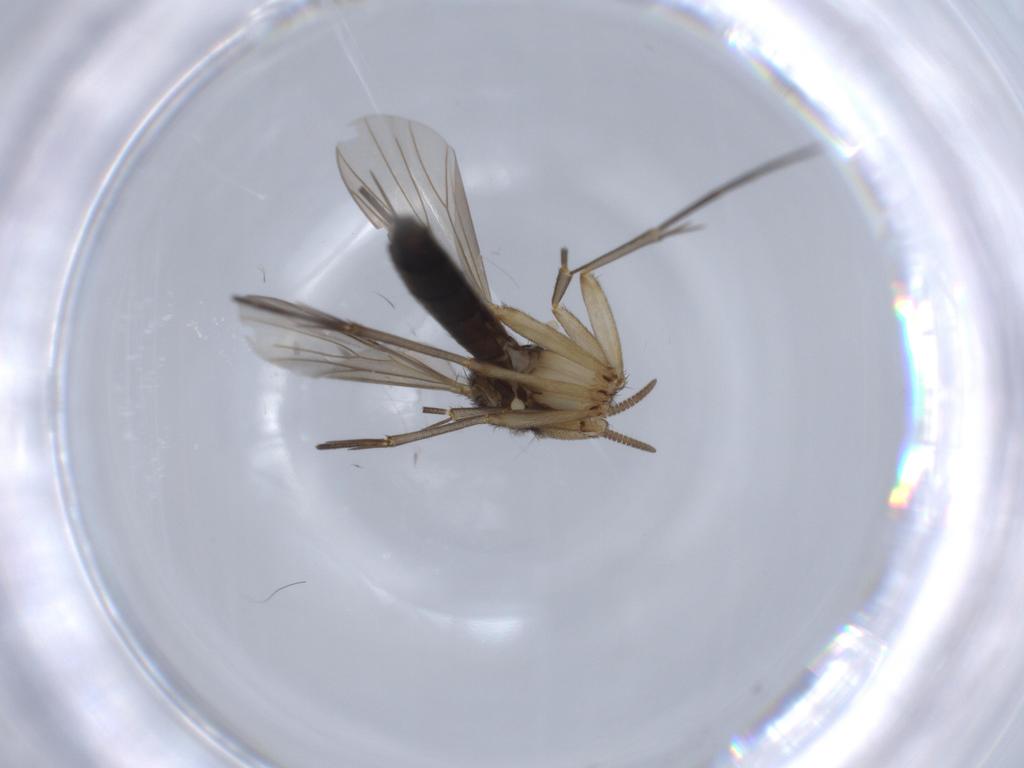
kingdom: Animalia
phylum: Arthropoda
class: Insecta
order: Diptera
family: Mycetophilidae
